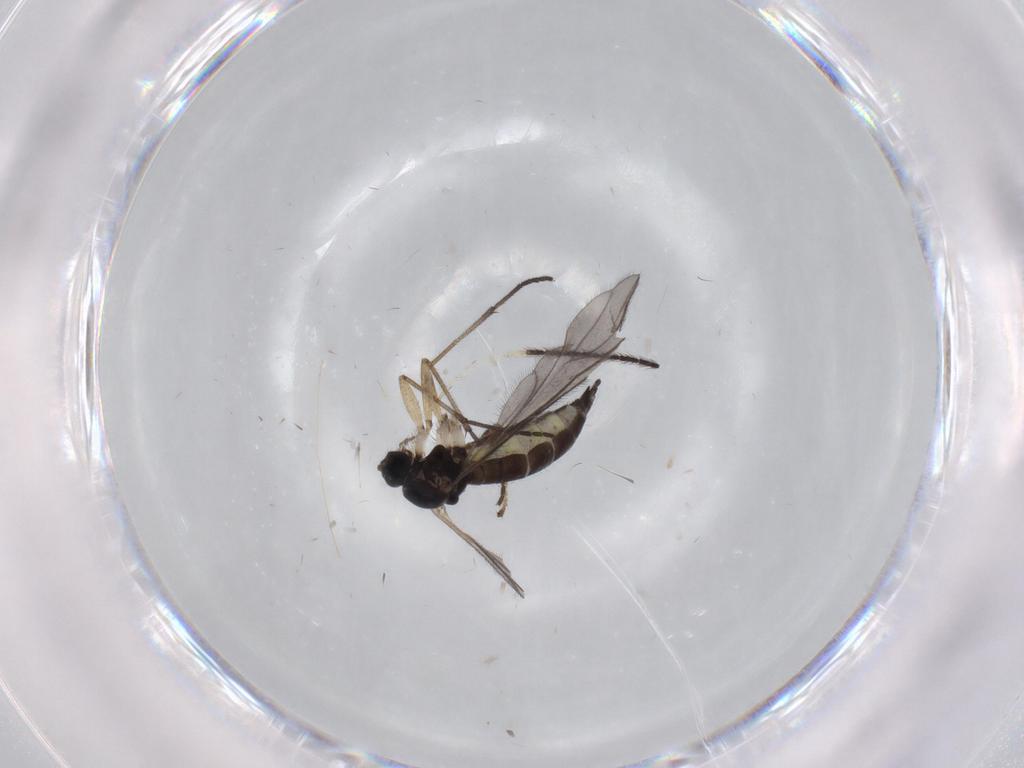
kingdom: Animalia
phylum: Arthropoda
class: Insecta
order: Diptera
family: Sciaridae
